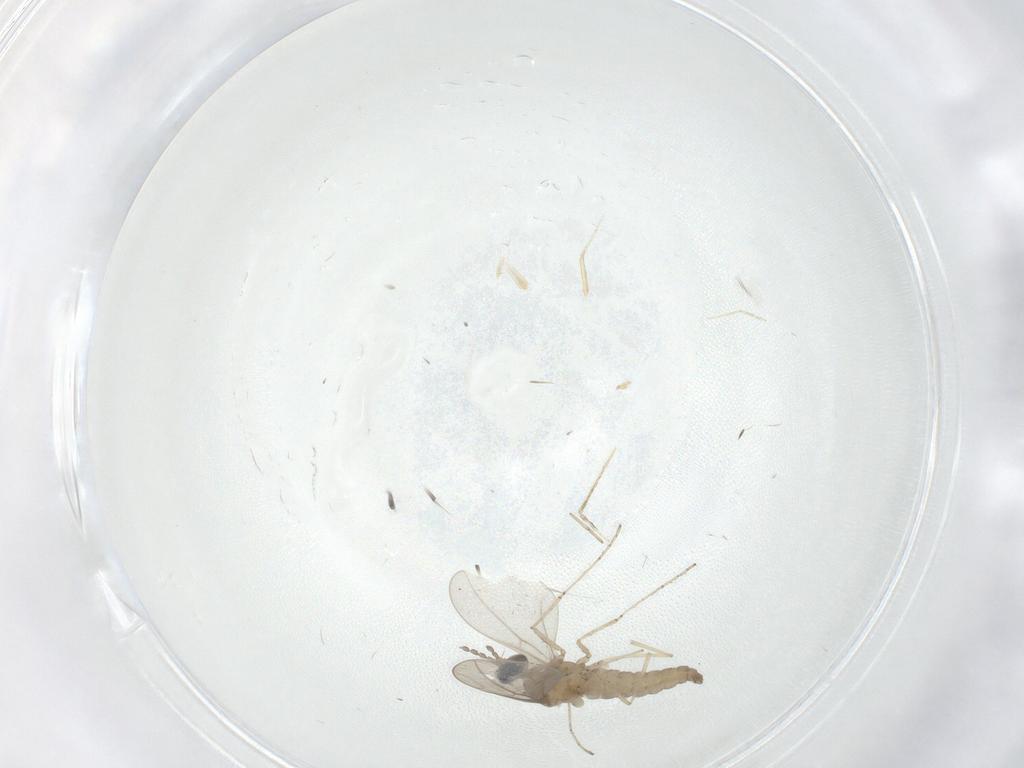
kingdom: Animalia
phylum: Arthropoda
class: Insecta
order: Diptera
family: Cecidomyiidae
